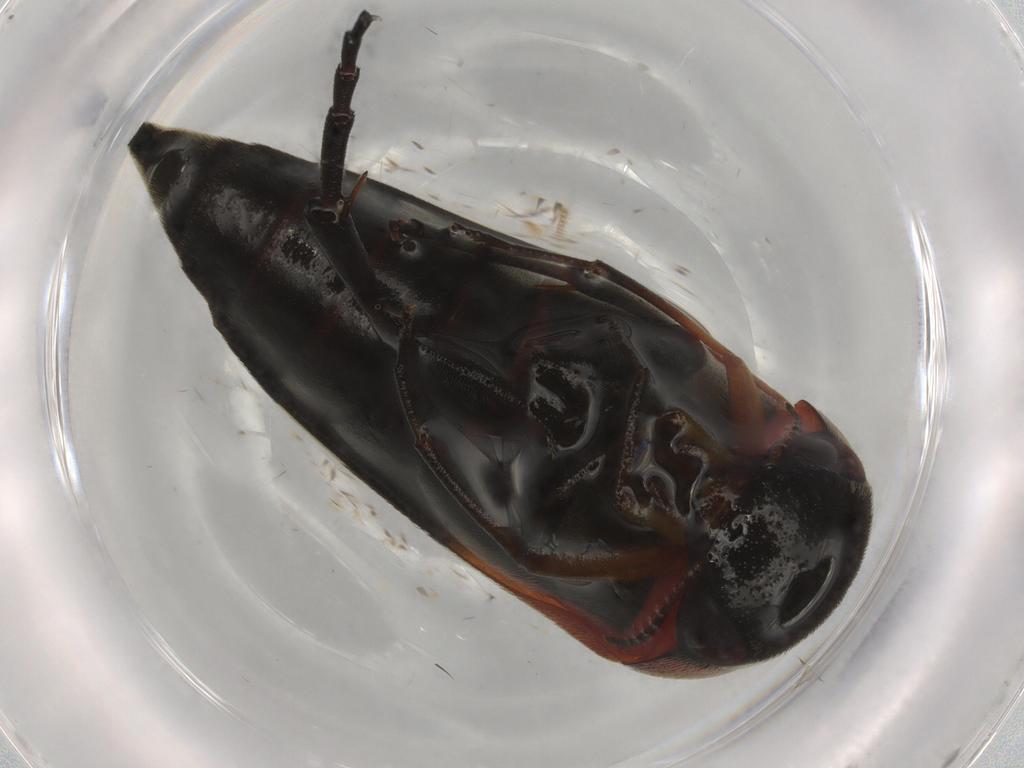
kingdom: Animalia
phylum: Arthropoda
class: Insecta
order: Coleoptera
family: Mordellidae
